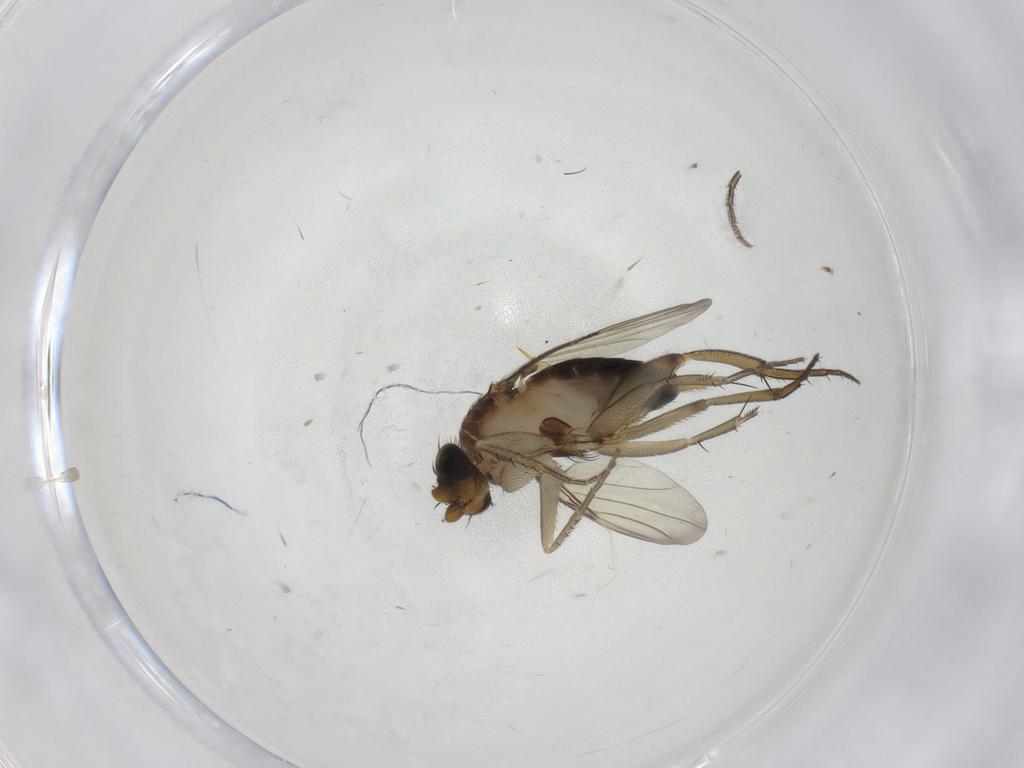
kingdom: Animalia
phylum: Arthropoda
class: Insecta
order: Diptera
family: Phoridae
